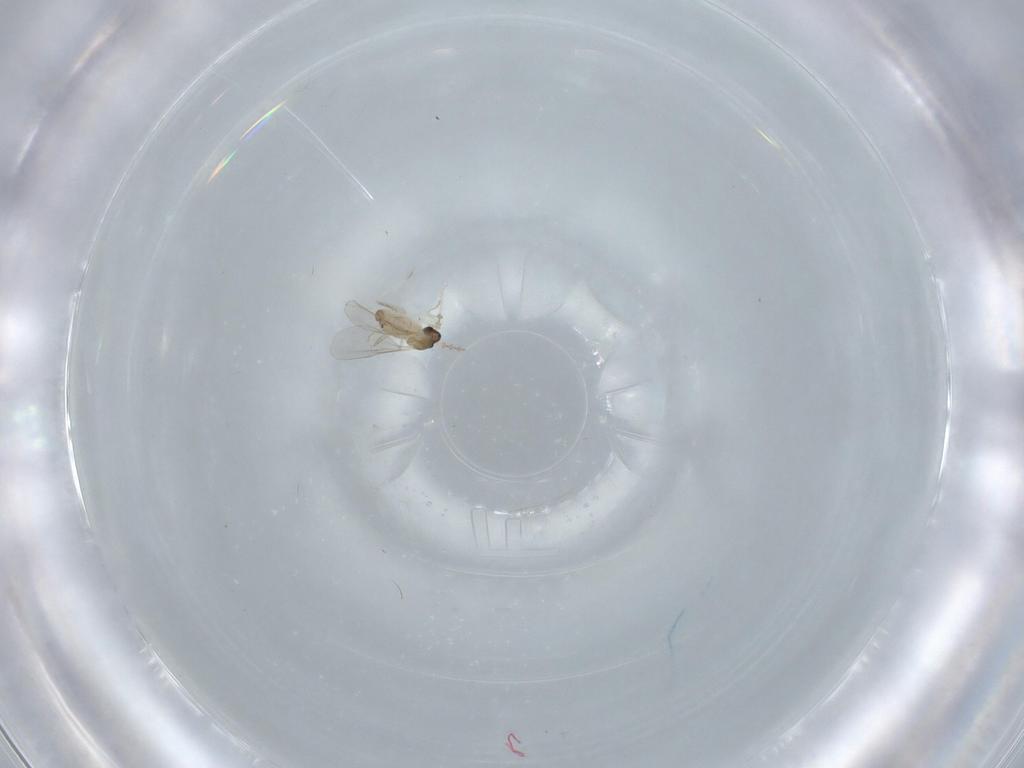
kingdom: Animalia
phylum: Arthropoda
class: Insecta
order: Diptera
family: Cecidomyiidae
